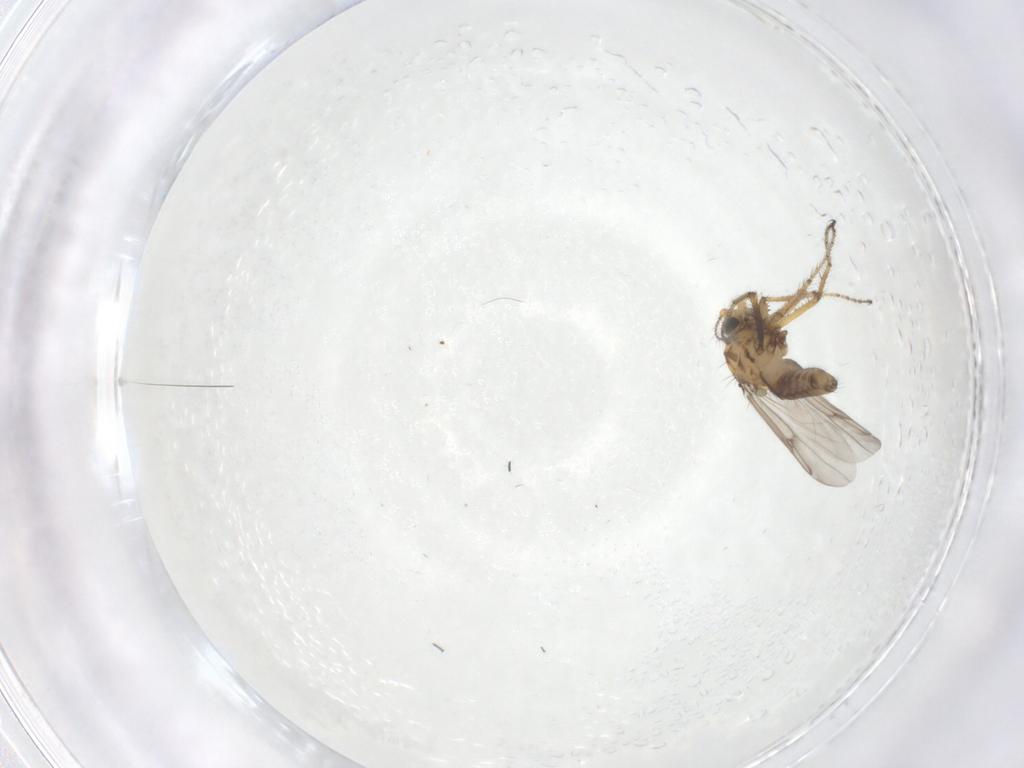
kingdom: Animalia
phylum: Arthropoda
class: Insecta
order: Diptera
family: Ceratopogonidae
